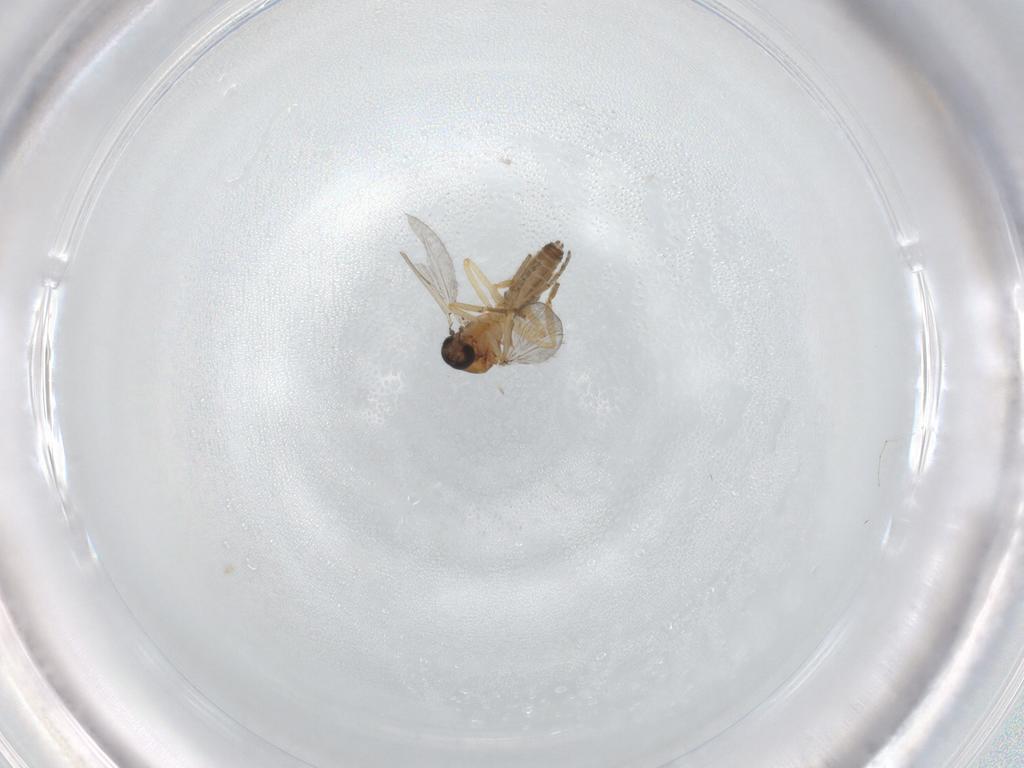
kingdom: Animalia
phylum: Arthropoda
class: Insecta
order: Diptera
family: Ceratopogonidae
